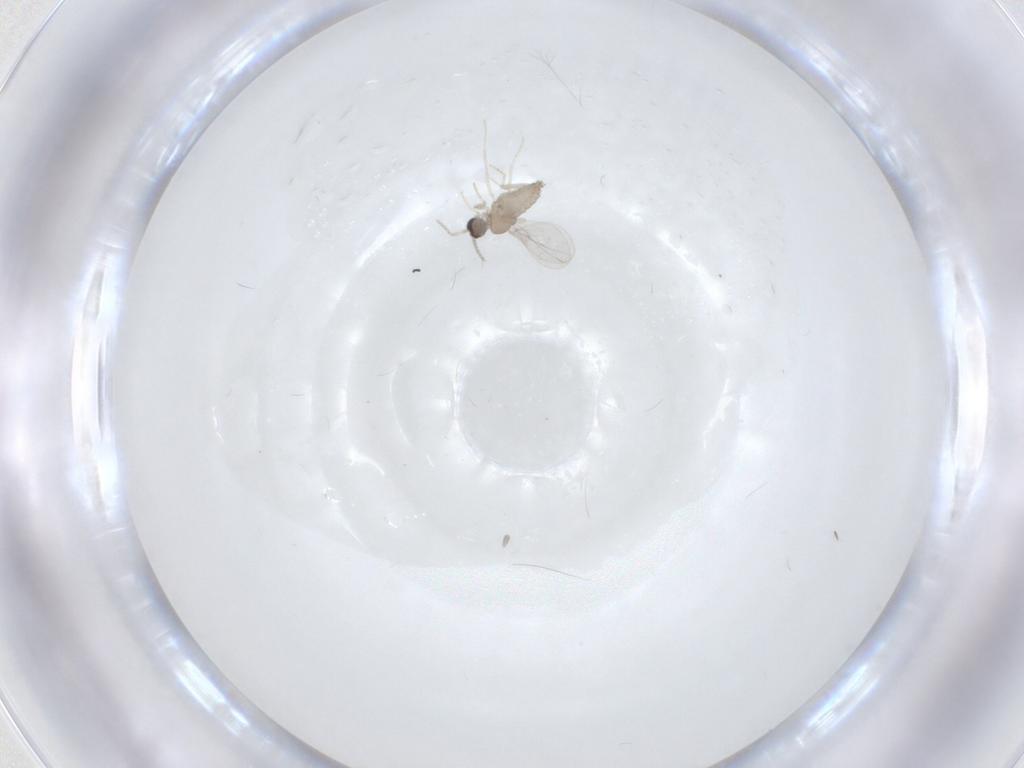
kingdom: Animalia
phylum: Arthropoda
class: Insecta
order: Diptera
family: Cecidomyiidae
